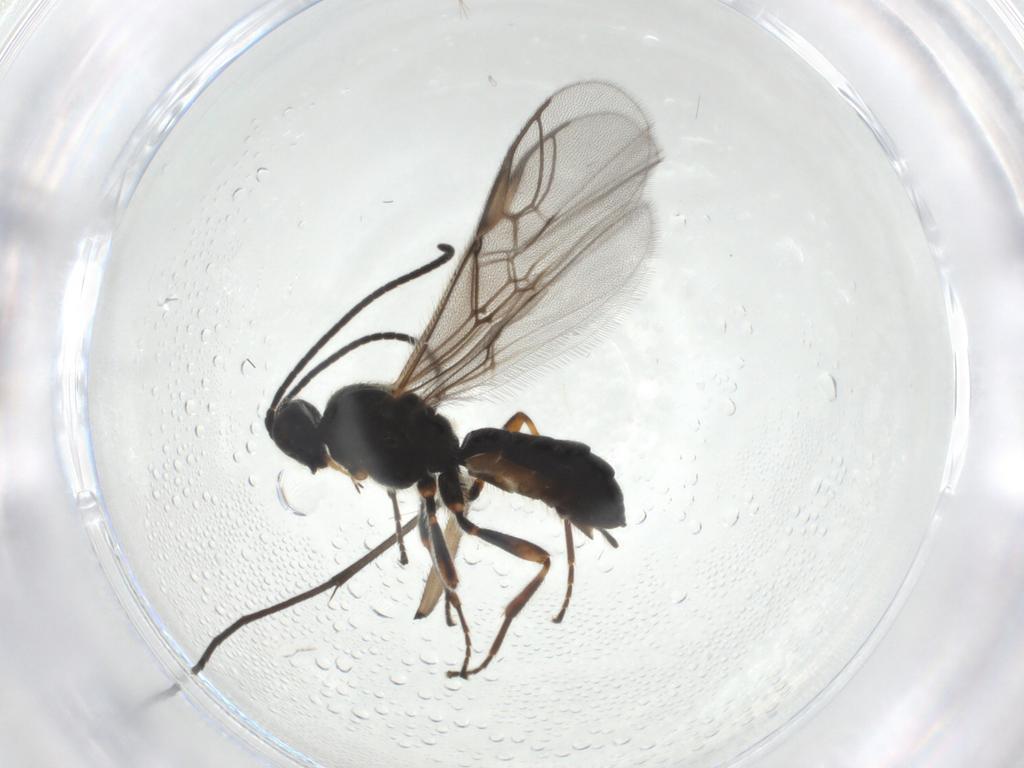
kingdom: Animalia
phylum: Arthropoda
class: Insecta
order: Hymenoptera
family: Braconidae
